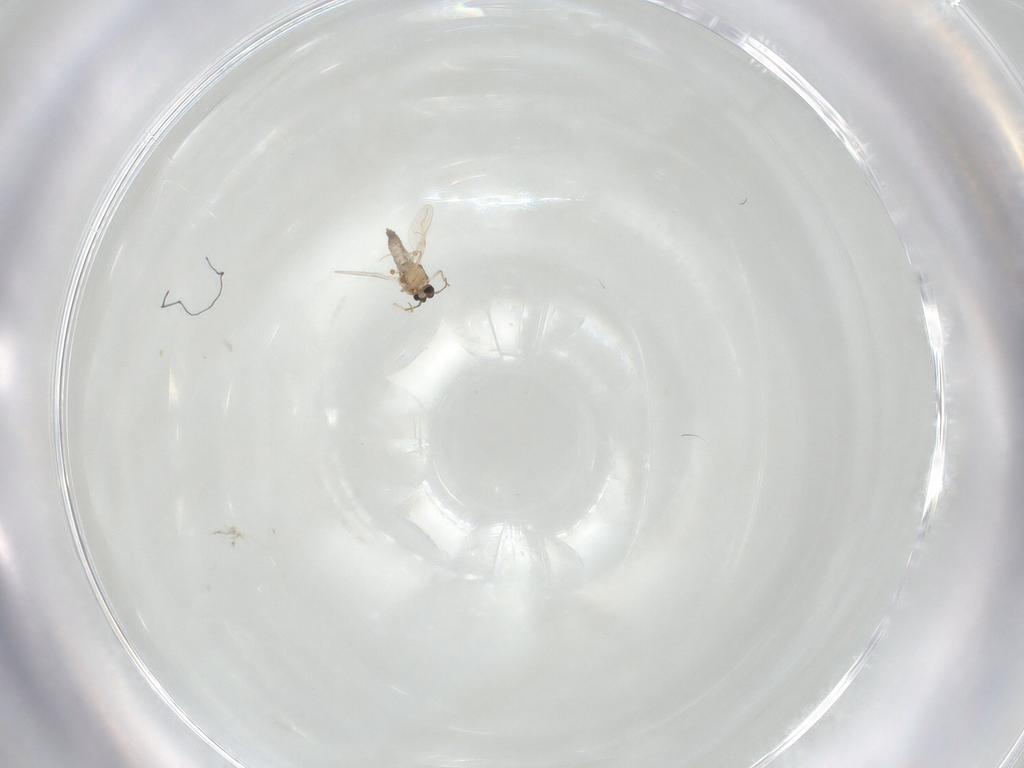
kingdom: Animalia
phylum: Arthropoda
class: Insecta
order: Diptera
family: Ceratopogonidae
